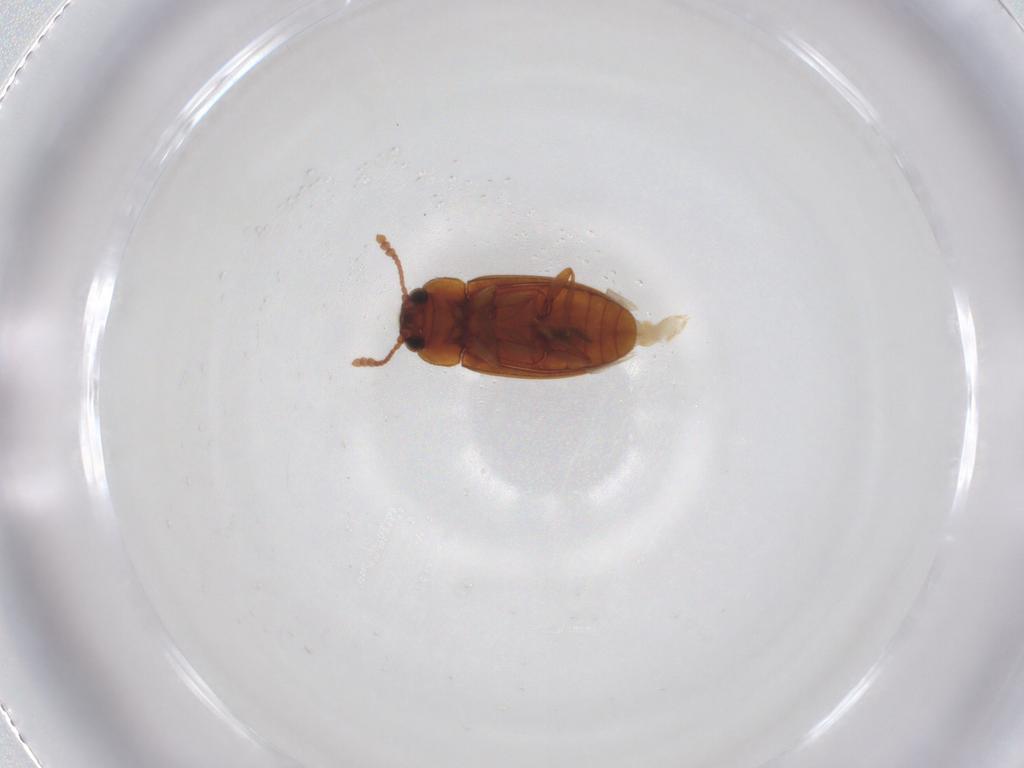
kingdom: Animalia
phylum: Arthropoda
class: Insecta
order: Coleoptera
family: Erotylidae
